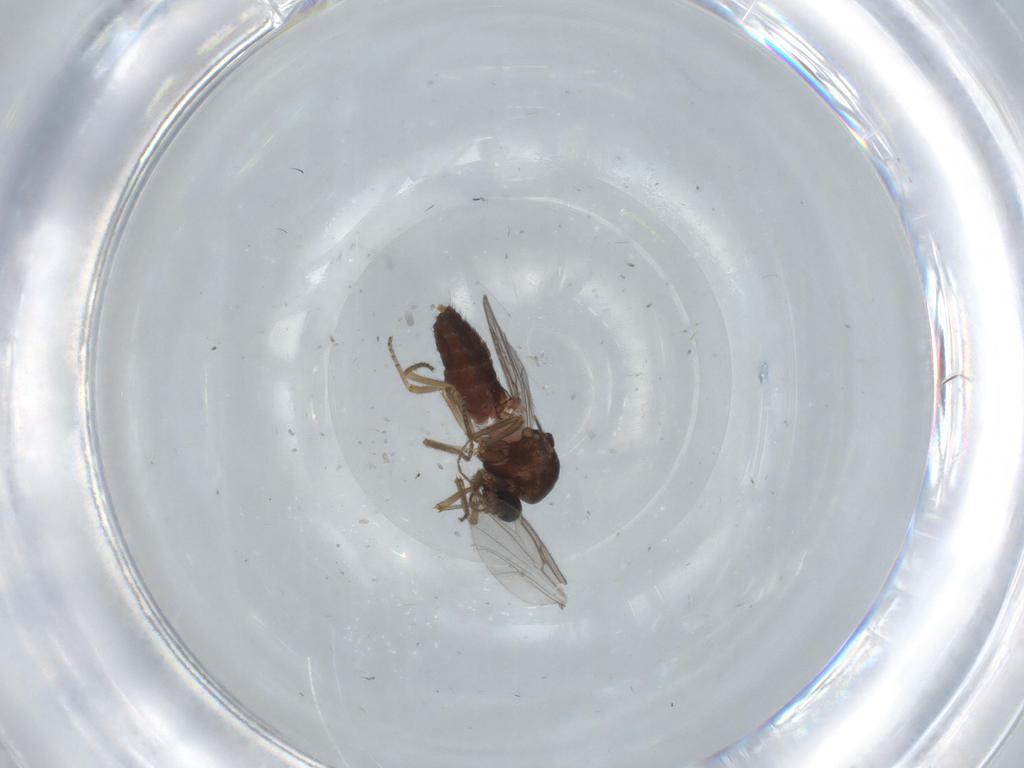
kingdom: Animalia
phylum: Arthropoda
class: Insecta
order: Diptera
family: Ceratopogonidae
